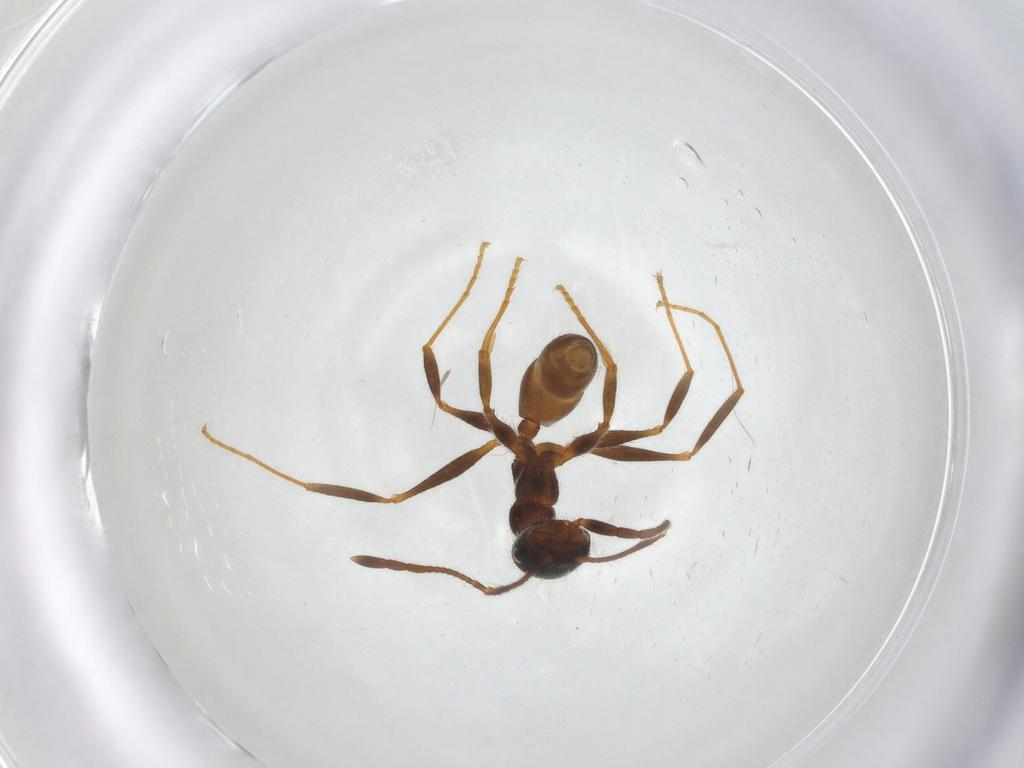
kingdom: Animalia
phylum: Arthropoda
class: Insecta
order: Hymenoptera
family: Formicidae
